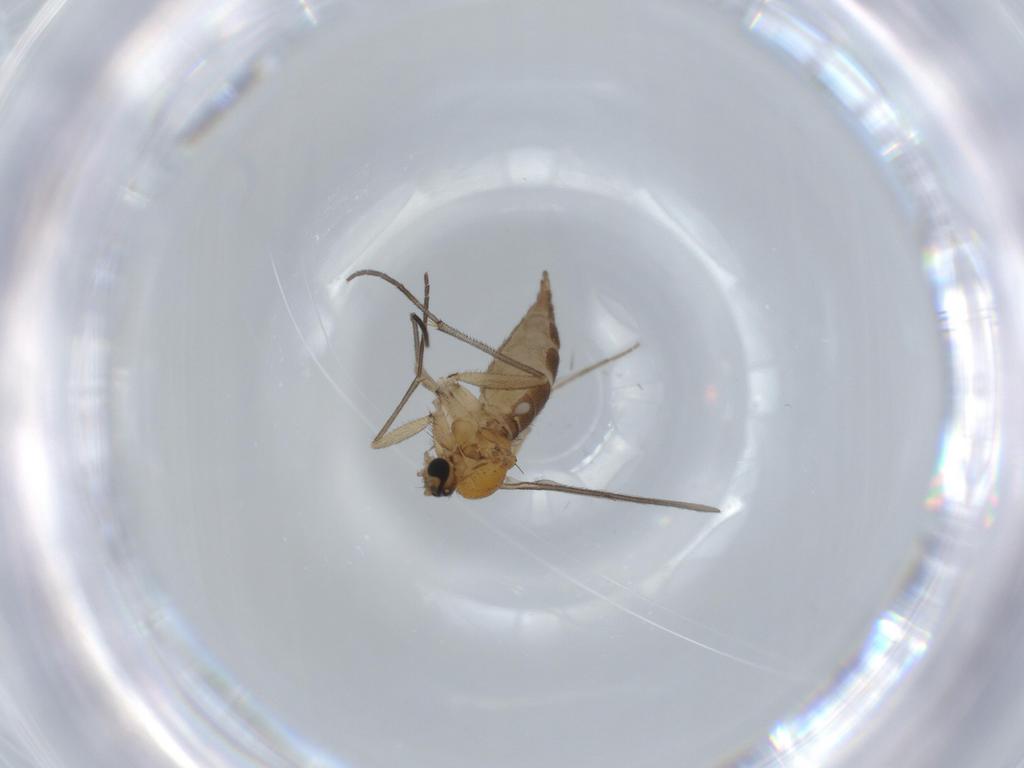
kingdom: Animalia
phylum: Arthropoda
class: Insecta
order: Diptera
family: Sciaridae
